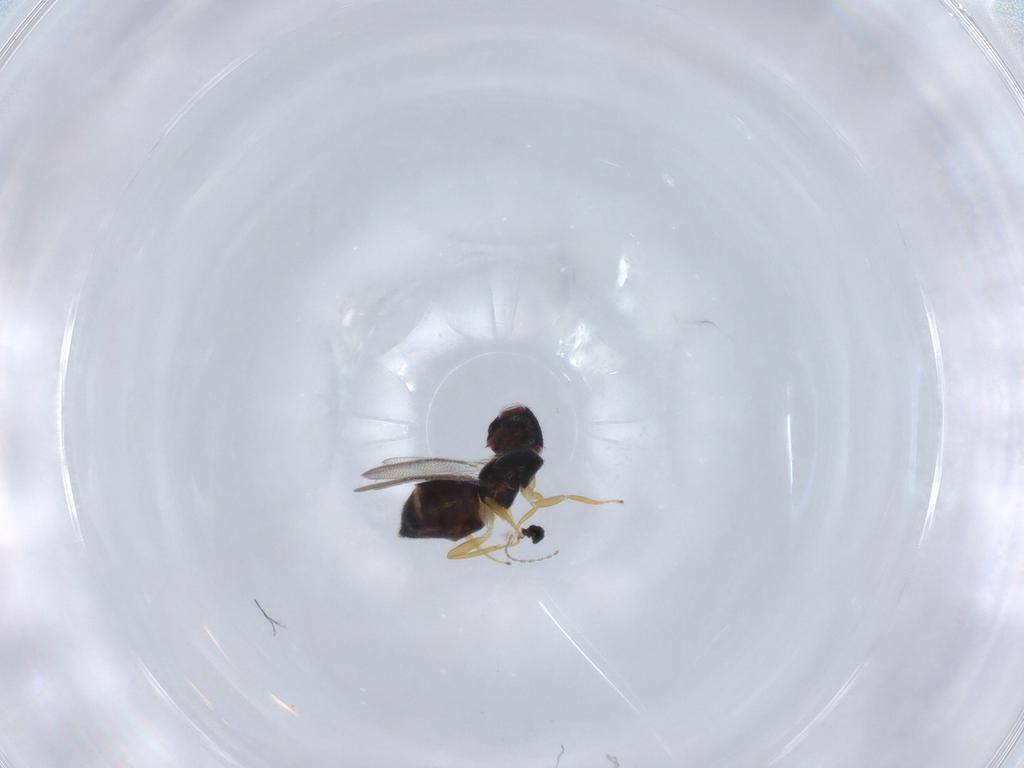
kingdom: Animalia
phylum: Arthropoda
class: Insecta
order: Hymenoptera
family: Eulophidae
